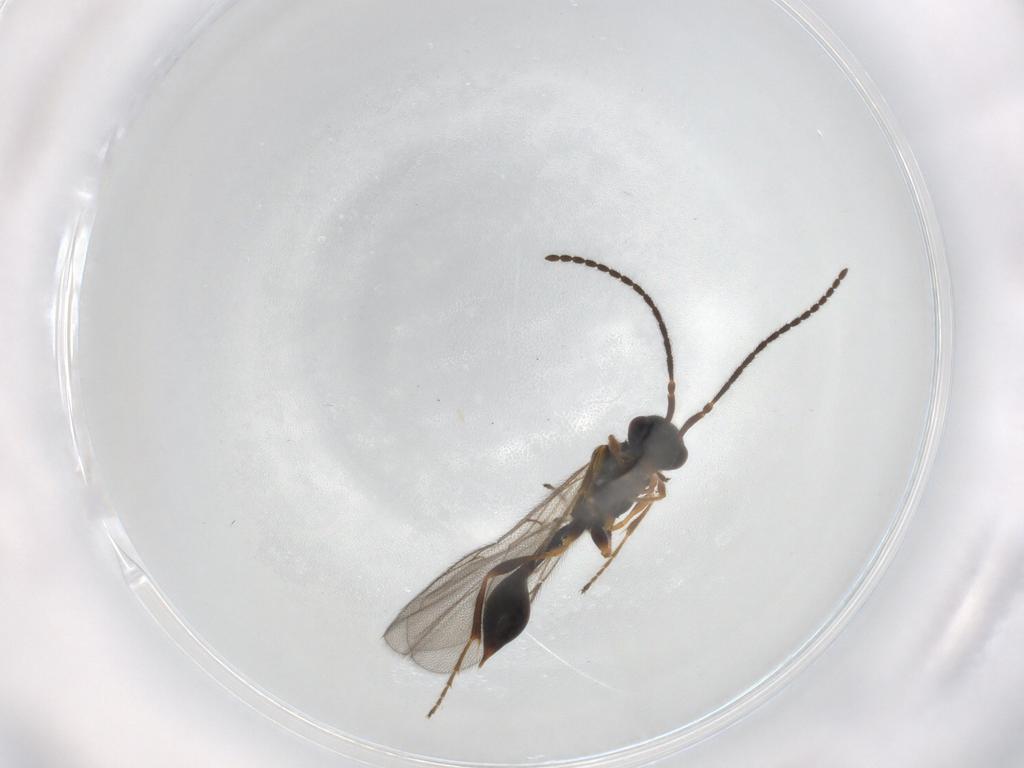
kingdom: Animalia
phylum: Arthropoda
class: Insecta
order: Hymenoptera
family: Diapriidae
